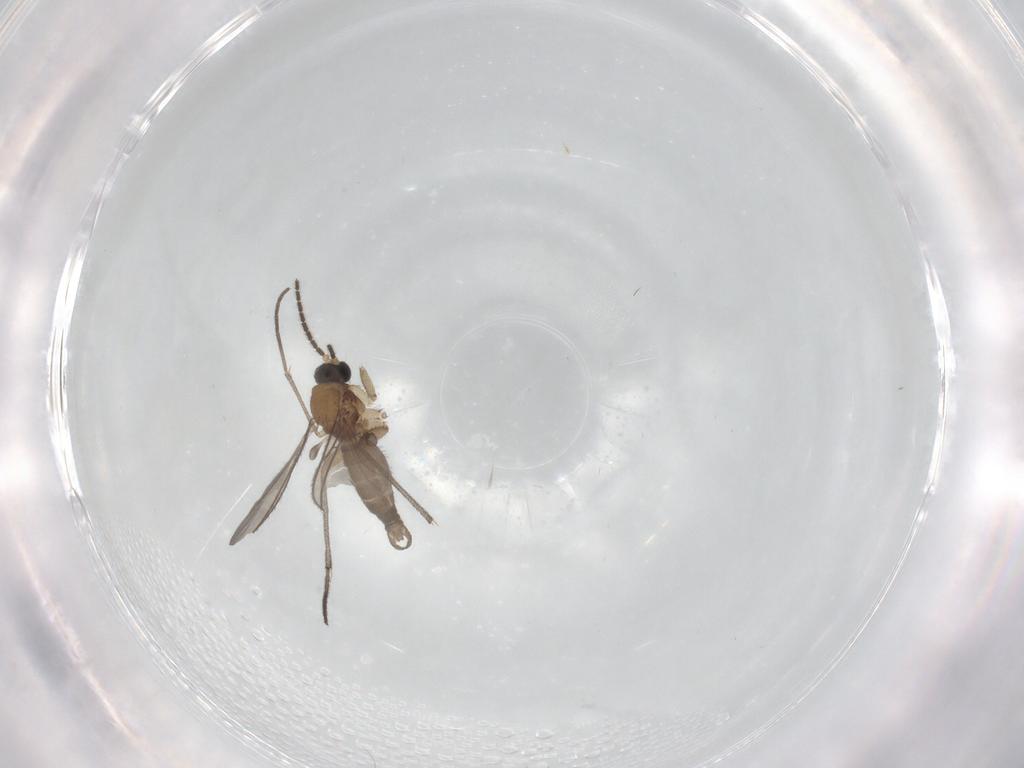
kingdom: Animalia
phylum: Arthropoda
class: Insecta
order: Diptera
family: Sciaridae
